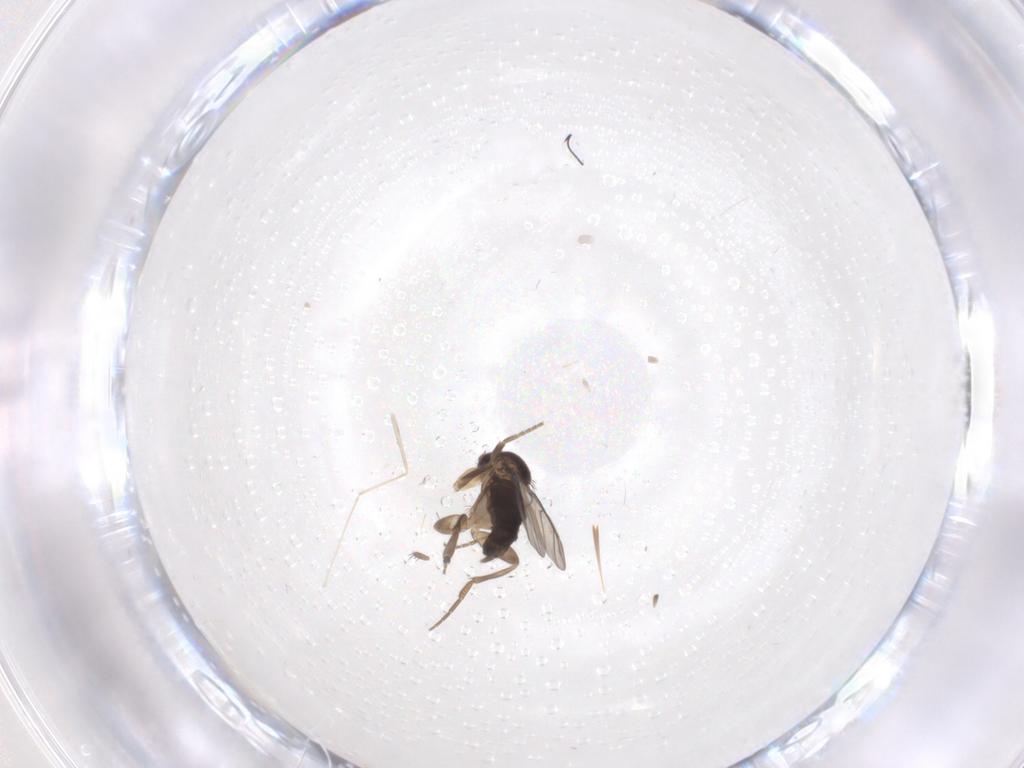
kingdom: Animalia
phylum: Arthropoda
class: Insecta
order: Diptera
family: Phoridae
